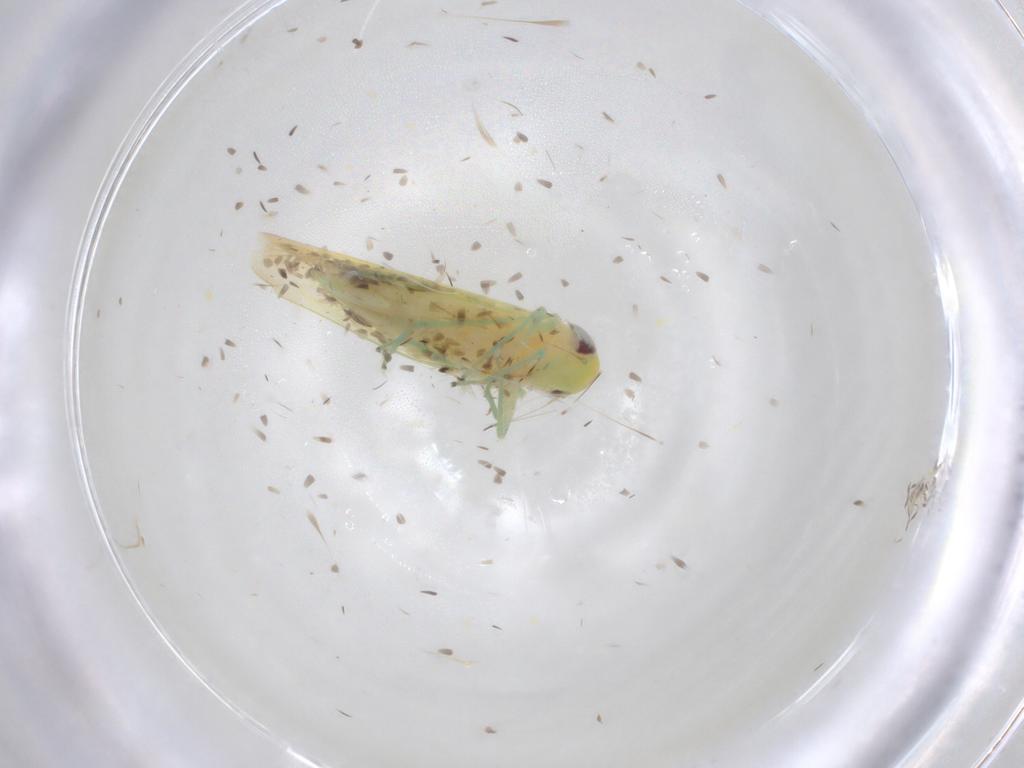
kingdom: Animalia
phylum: Arthropoda
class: Insecta
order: Hemiptera
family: Cicadellidae
